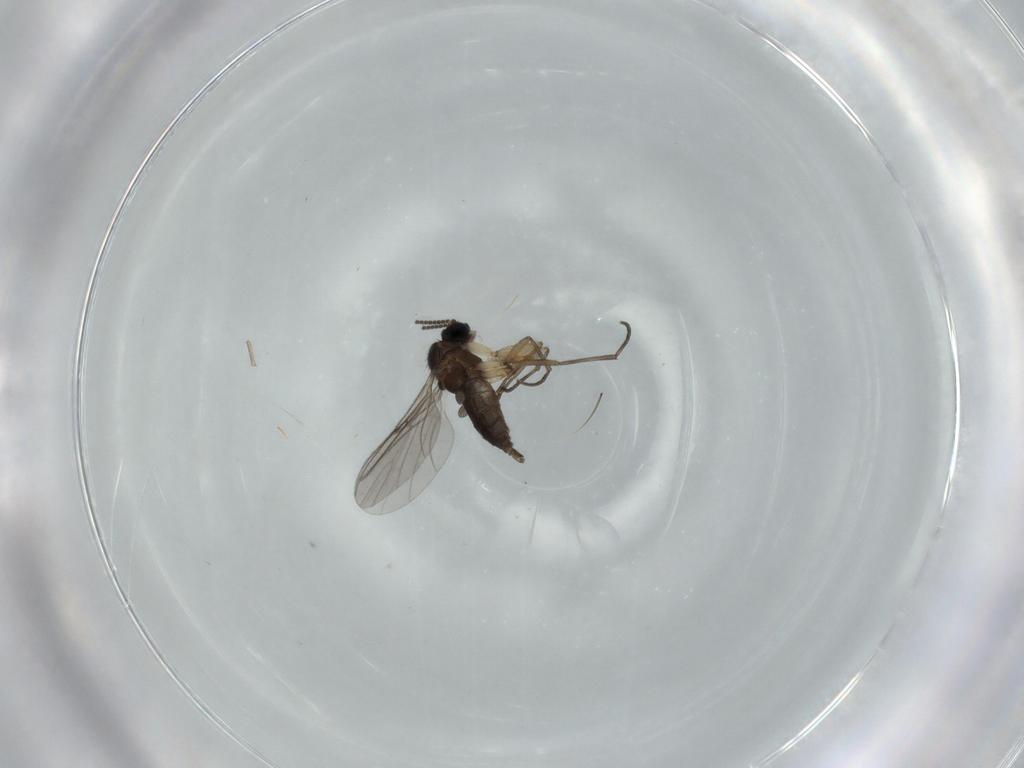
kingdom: Animalia
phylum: Arthropoda
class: Insecta
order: Diptera
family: Sciaridae
